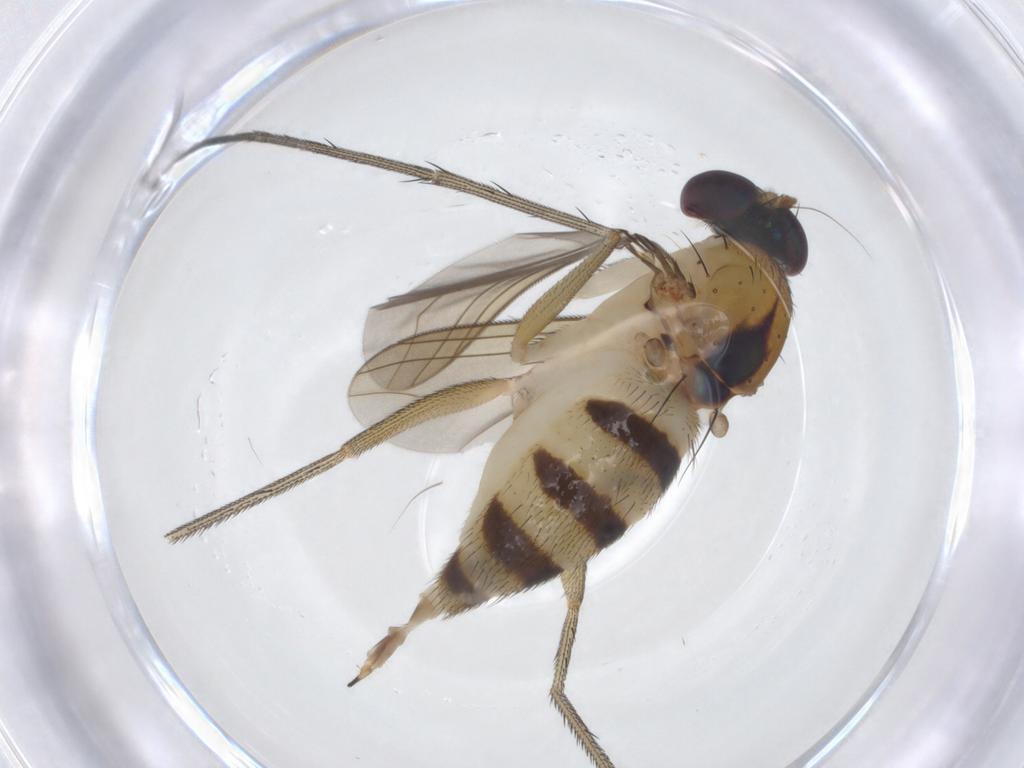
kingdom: Animalia
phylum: Arthropoda
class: Insecta
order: Diptera
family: Dolichopodidae
